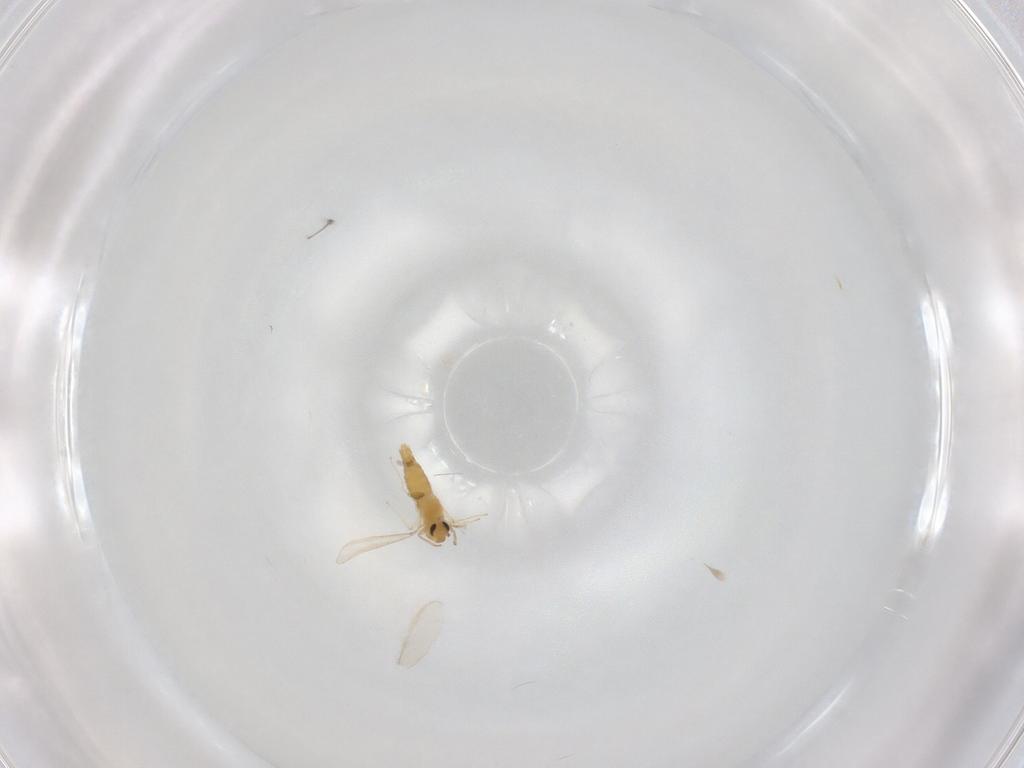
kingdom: Animalia
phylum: Arthropoda
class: Insecta
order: Diptera
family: Chironomidae
